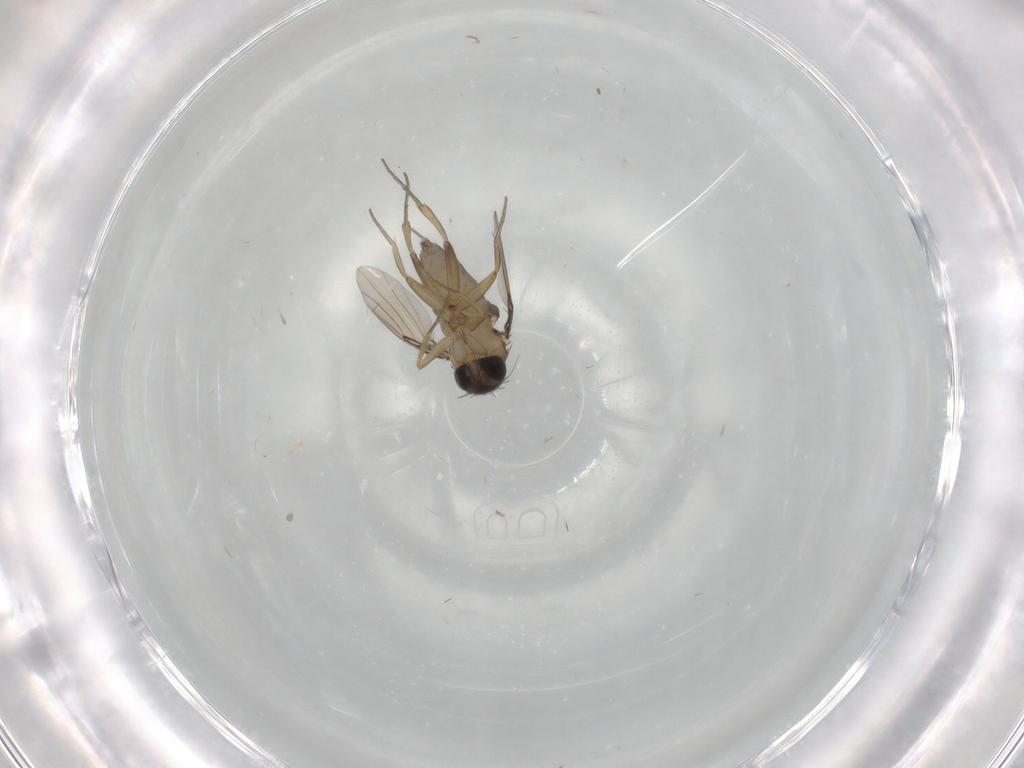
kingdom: Animalia
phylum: Arthropoda
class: Insecta
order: Diptera
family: Phoridae
